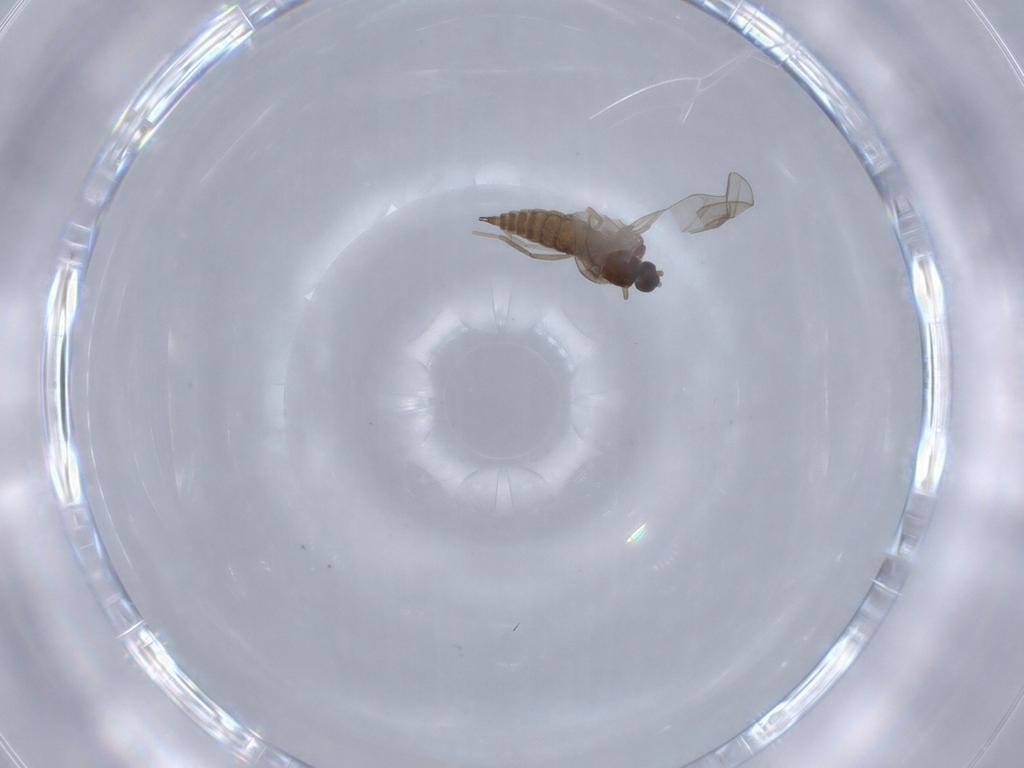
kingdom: Animalia
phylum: Arthropoda
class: Insecta
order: Diptera
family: Cecidomyiidae
